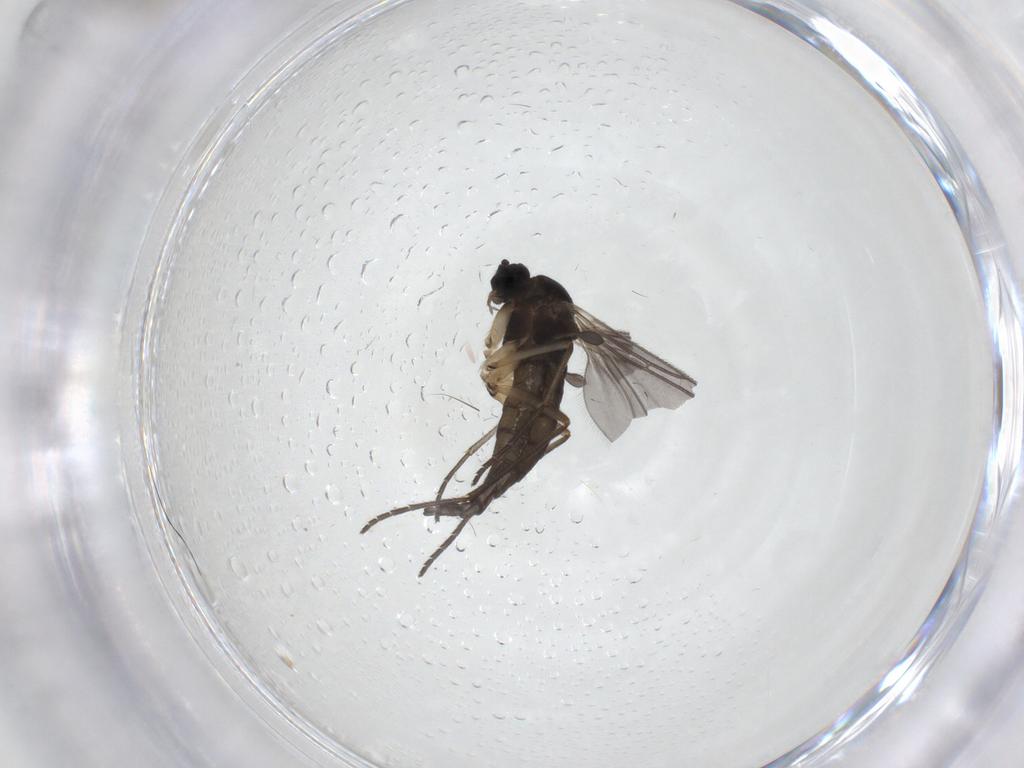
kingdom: Animalia
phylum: Arthropoda
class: Insecta
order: Diptera
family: Sciaridae
